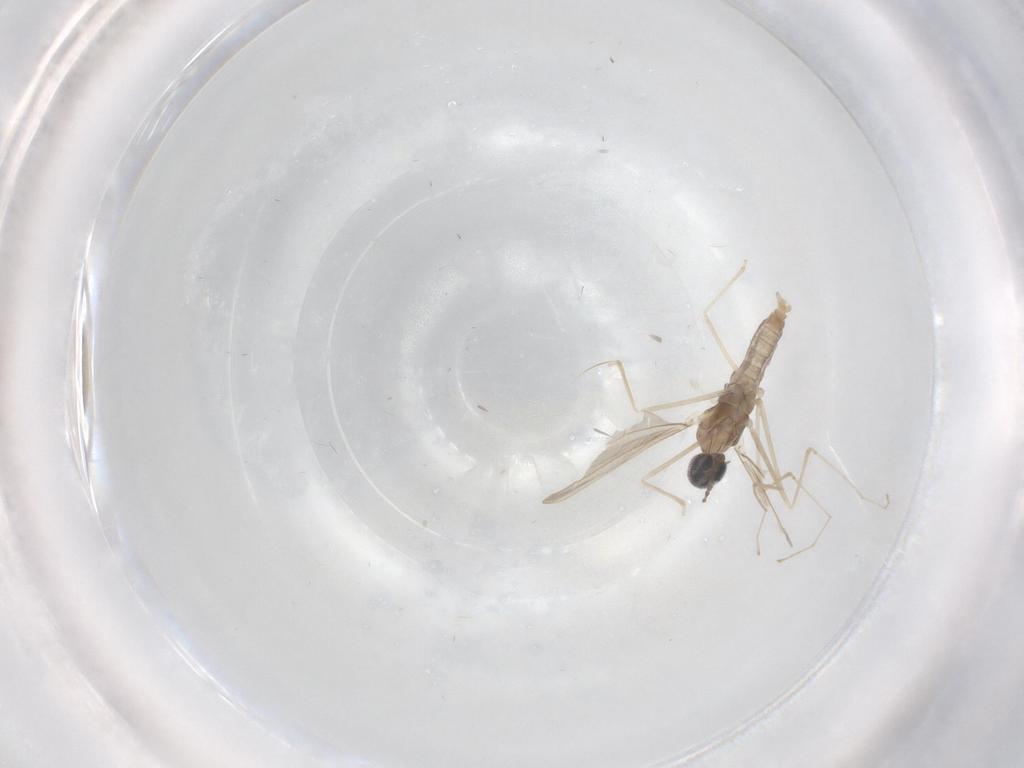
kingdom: Animalia
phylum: Arthropoda
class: Insecta
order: Diptera
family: Cecidomyiidae
